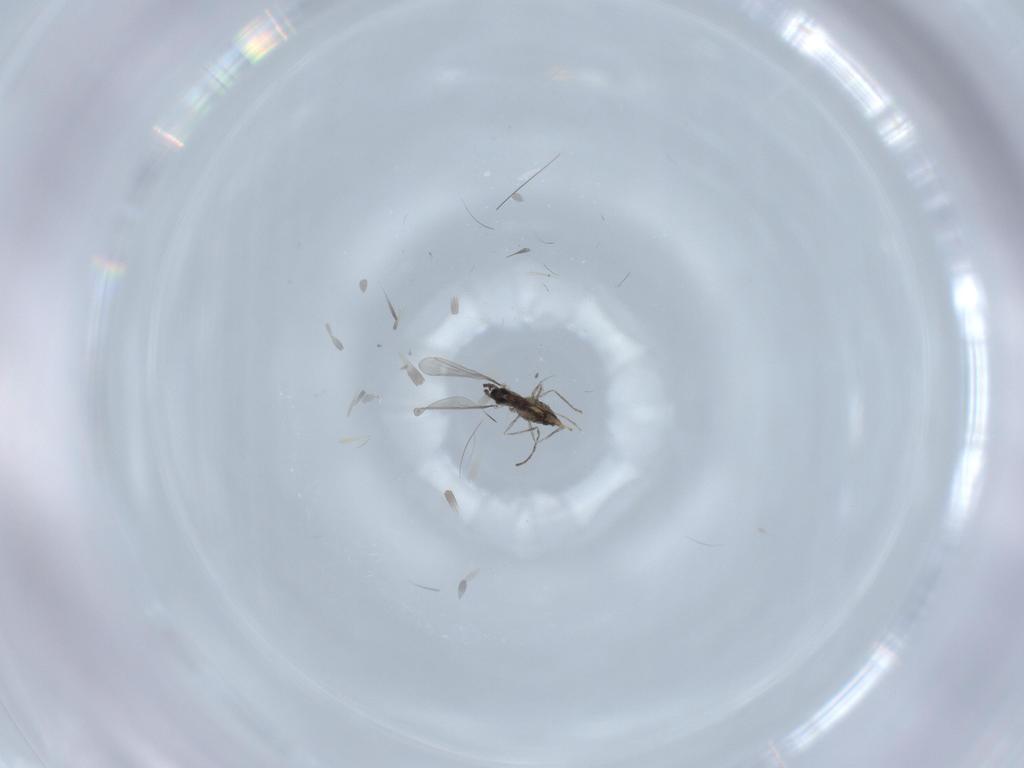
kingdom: Animalia
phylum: Arthropoda
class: Insecta
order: Diptera
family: Cecidomyiidae
